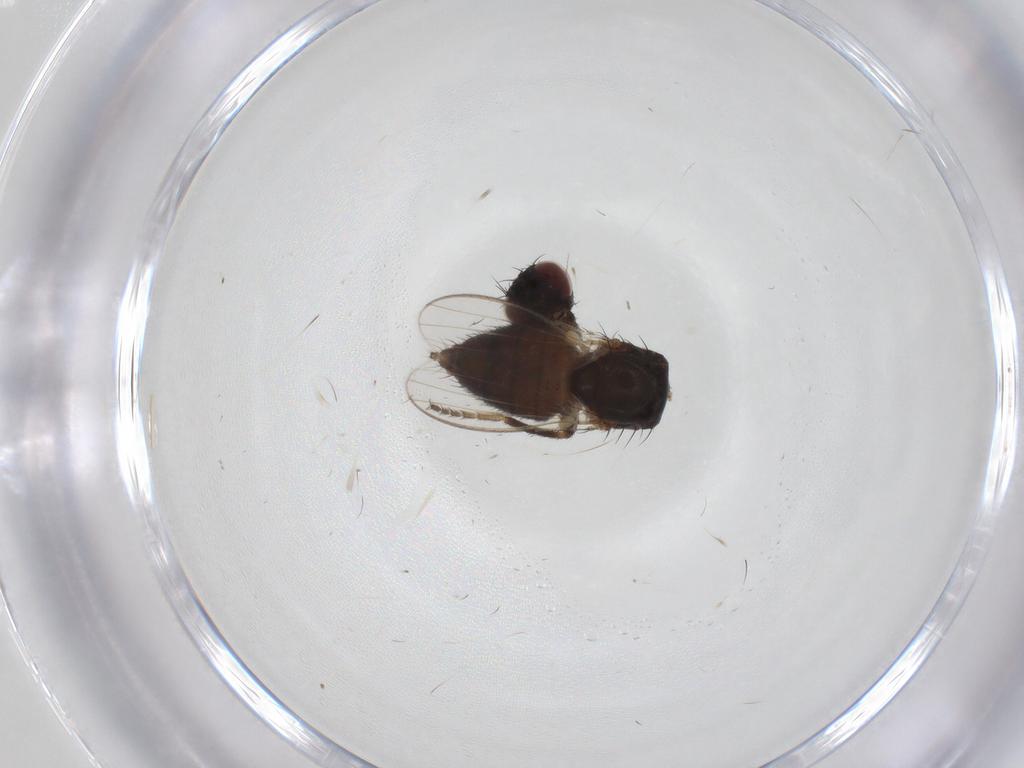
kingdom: Animalia
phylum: Arthropoda
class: Insecta
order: Diptera
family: Milichiidae
